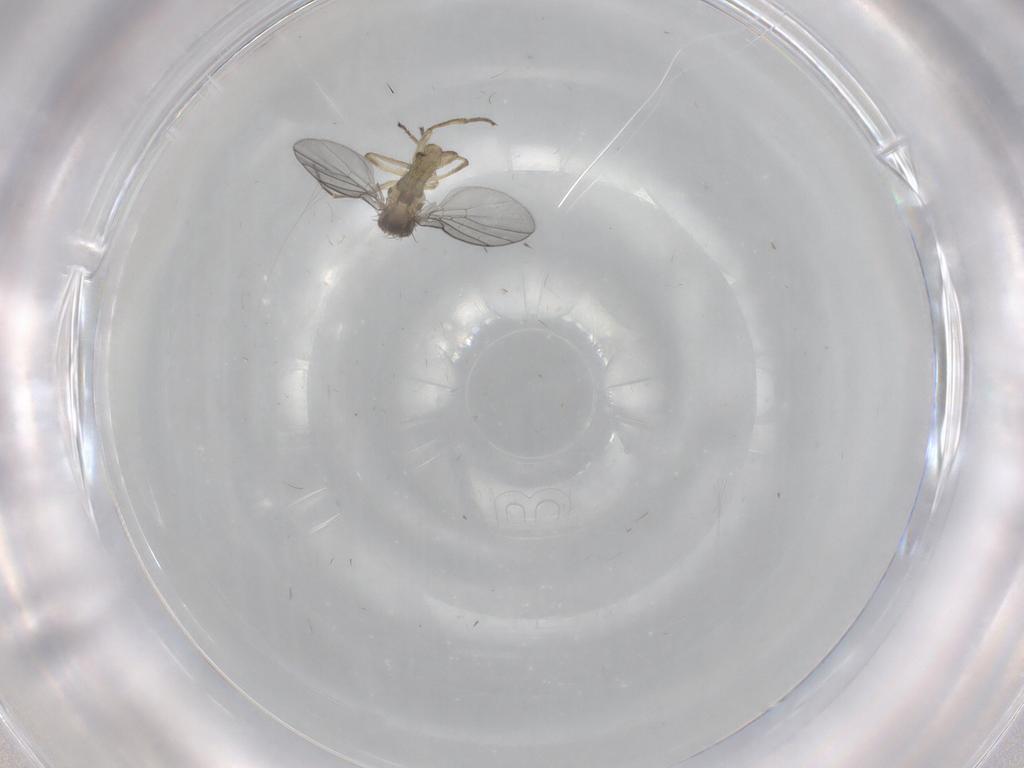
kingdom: Animalia
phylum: Arthropoda
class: Insecta
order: Diptera
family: Agromyzidae
